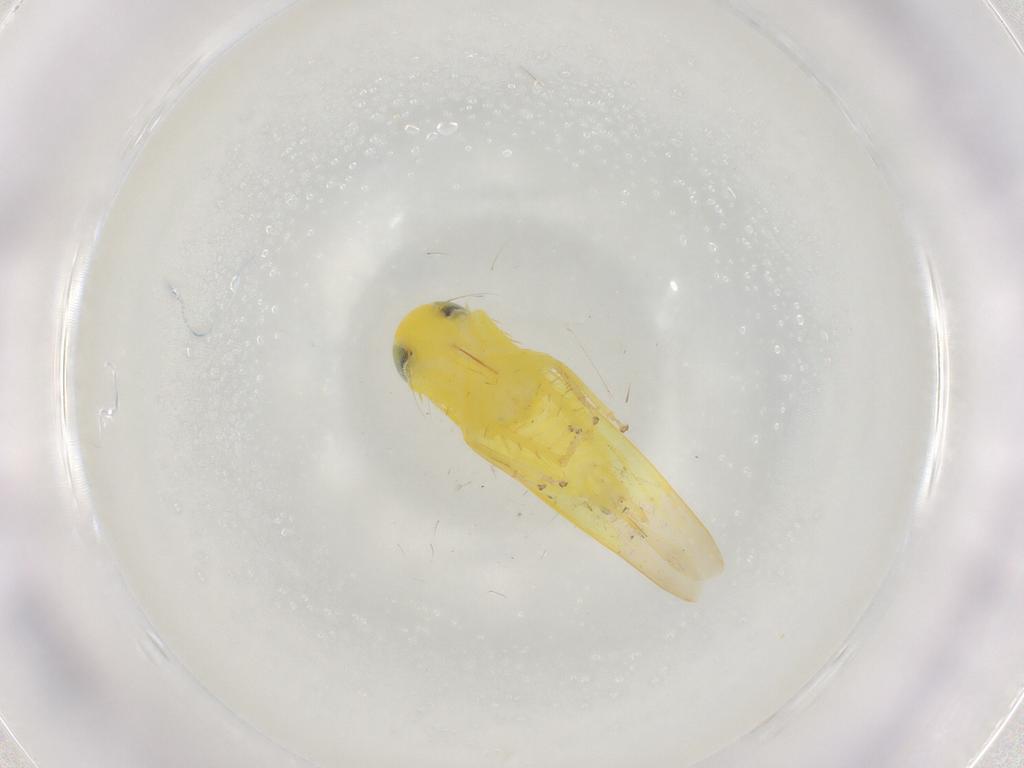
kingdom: Animalia
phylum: Arthropoda
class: Insecta
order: Hemiptera
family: Cicadellidae
